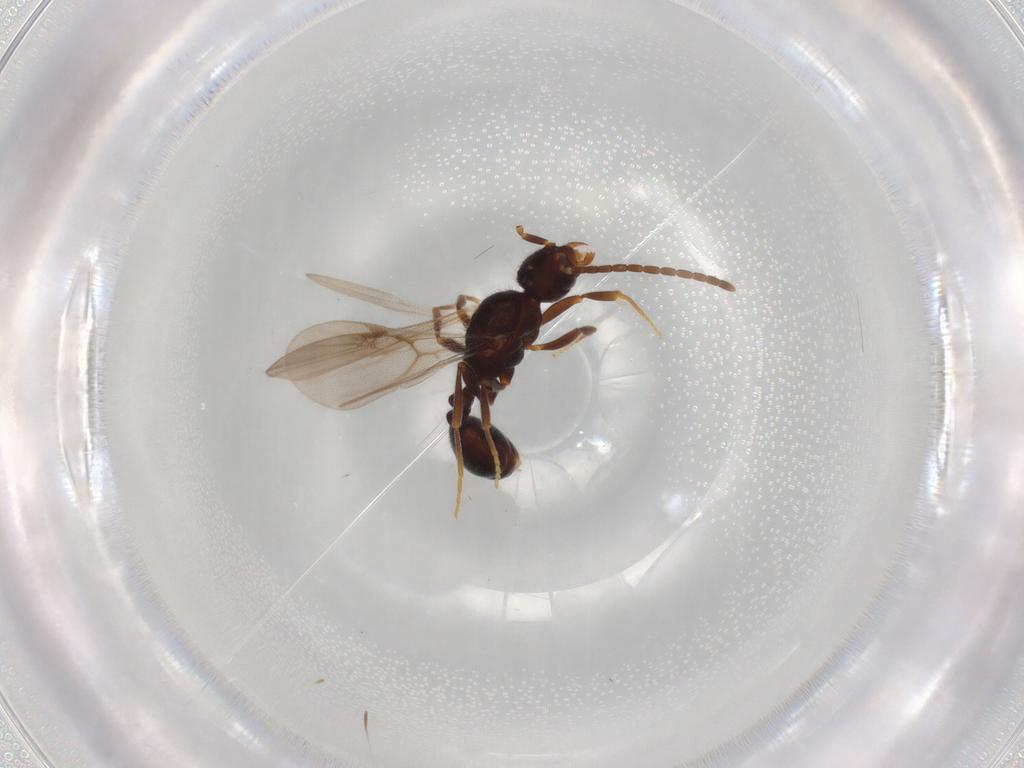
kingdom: Animalia
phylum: Arthropoda
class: Insecta
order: Hymenoptera
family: Formicidae
